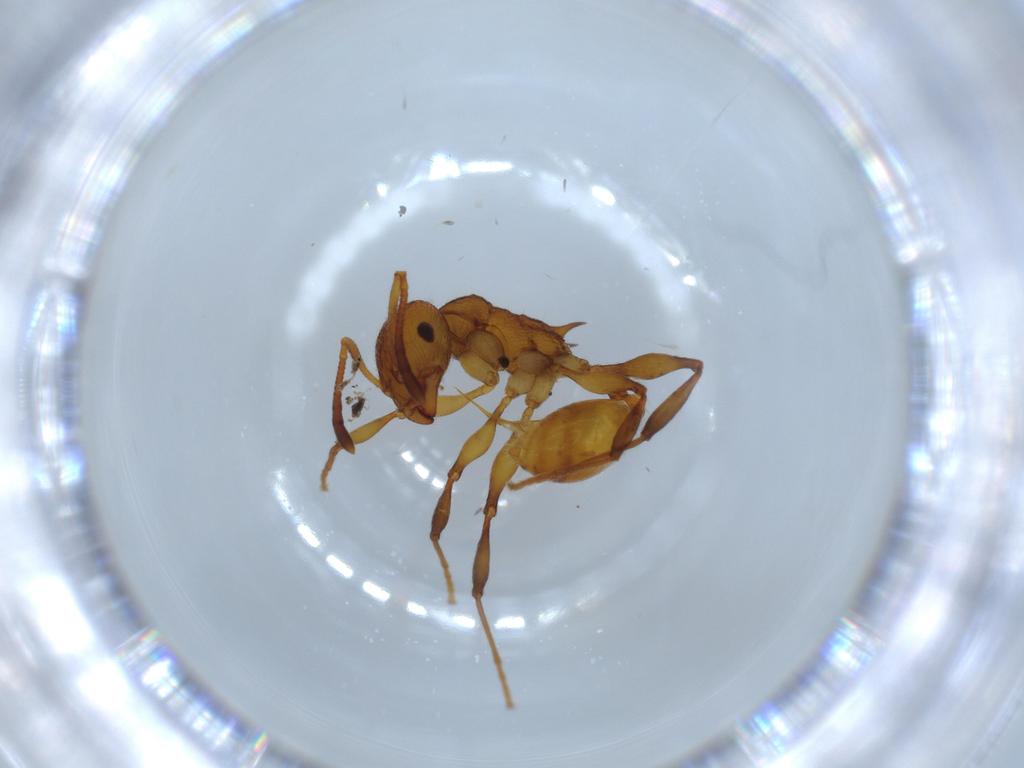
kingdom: Animalia
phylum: Arthropoda
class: Insecta
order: Hymenoptera
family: Formicidae
